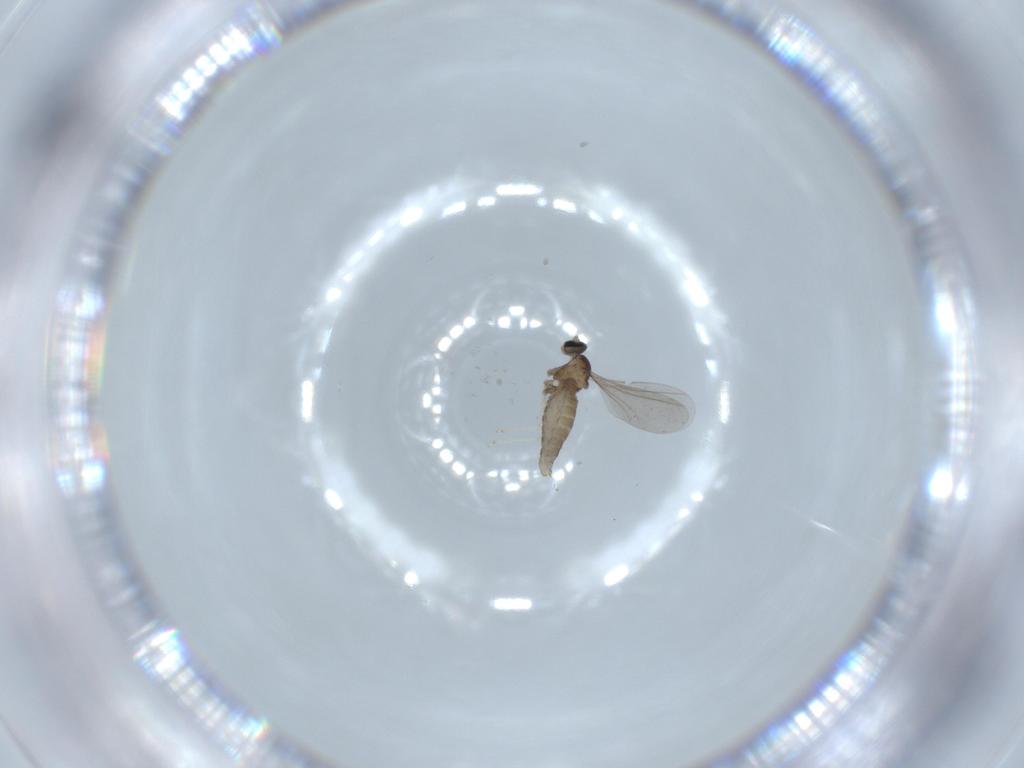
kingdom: Animalia
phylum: Arthropoda
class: Insecta
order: Diptera
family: Cecidomyiidae
